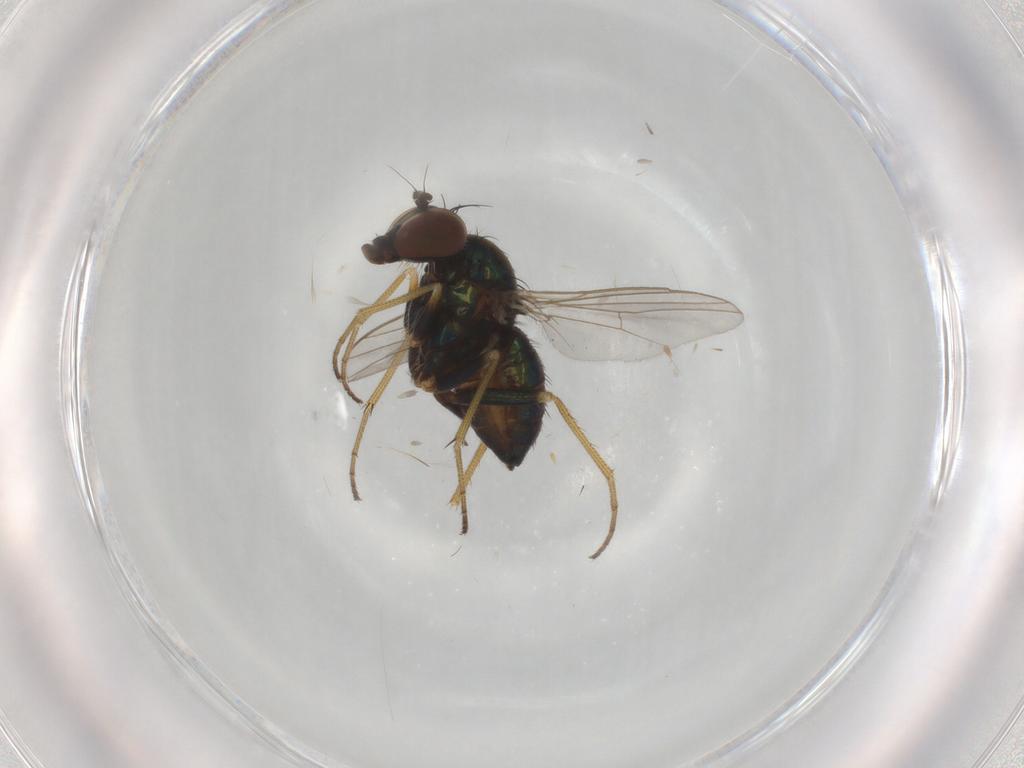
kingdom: Animalia
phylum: Arthropoda
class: Insecta
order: Diptera
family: Dolichopodidae
